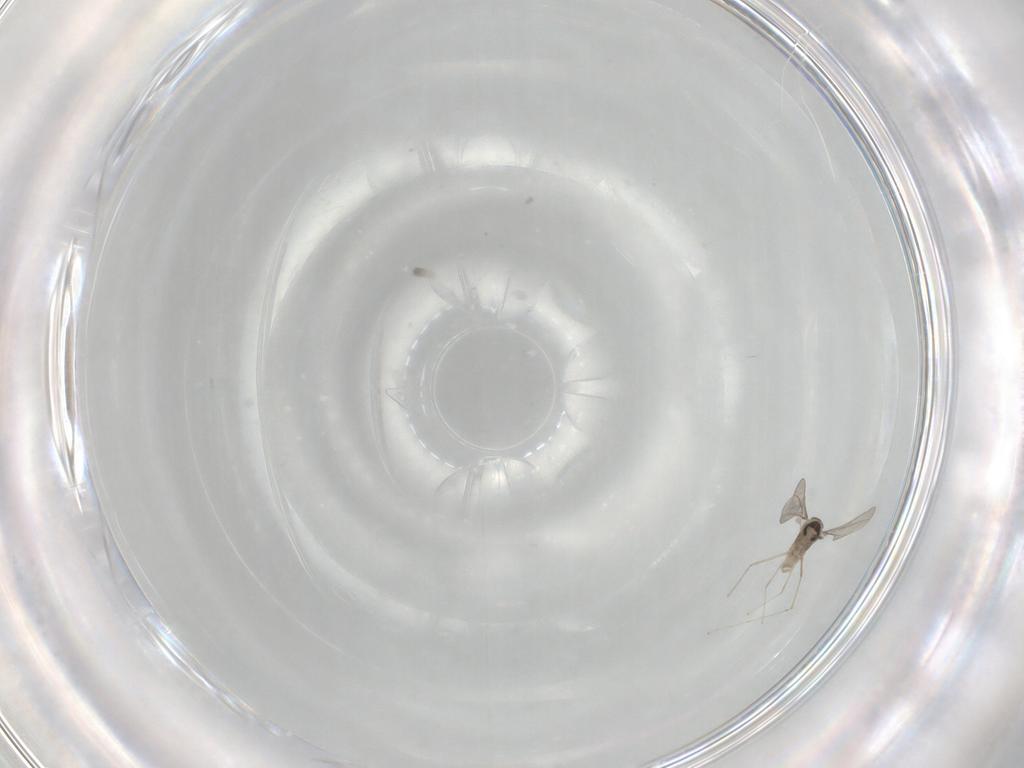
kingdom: Animalia
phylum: Arthropoda
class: Insecta
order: Diptera
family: Cecidomyiidae
